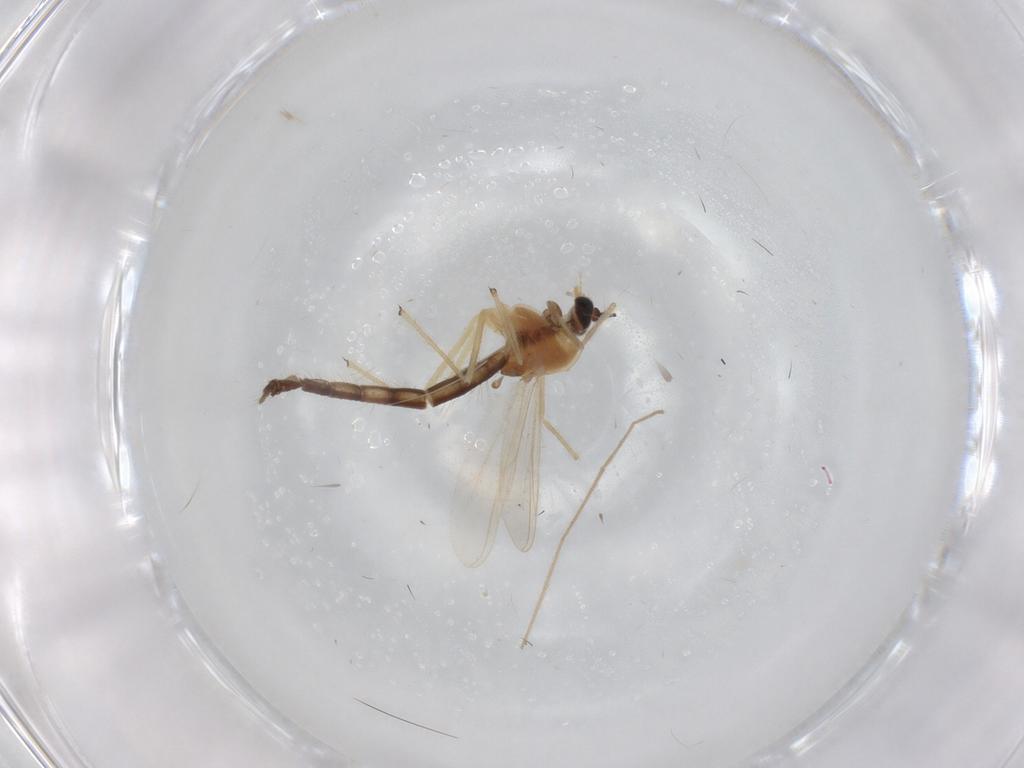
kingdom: Animalia
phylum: Arthropoda
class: Insecta
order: Diptera
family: Chironomidae
